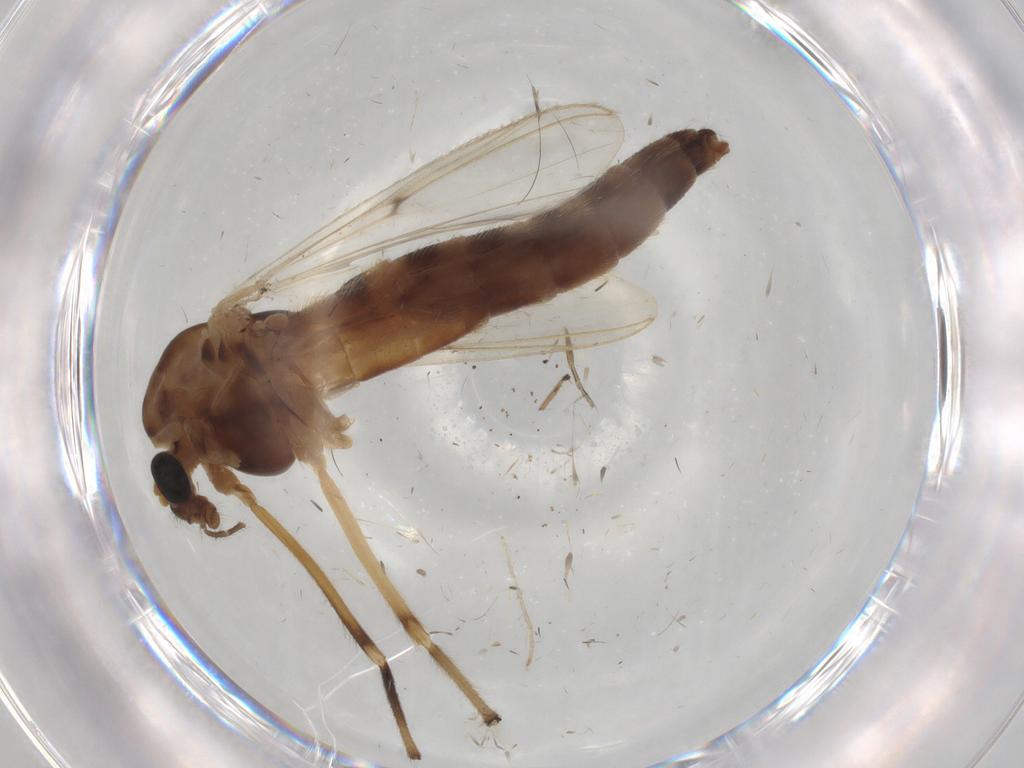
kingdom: Animalia
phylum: Arthropoda
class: Insecta
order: Diptera
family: Chironomidae
